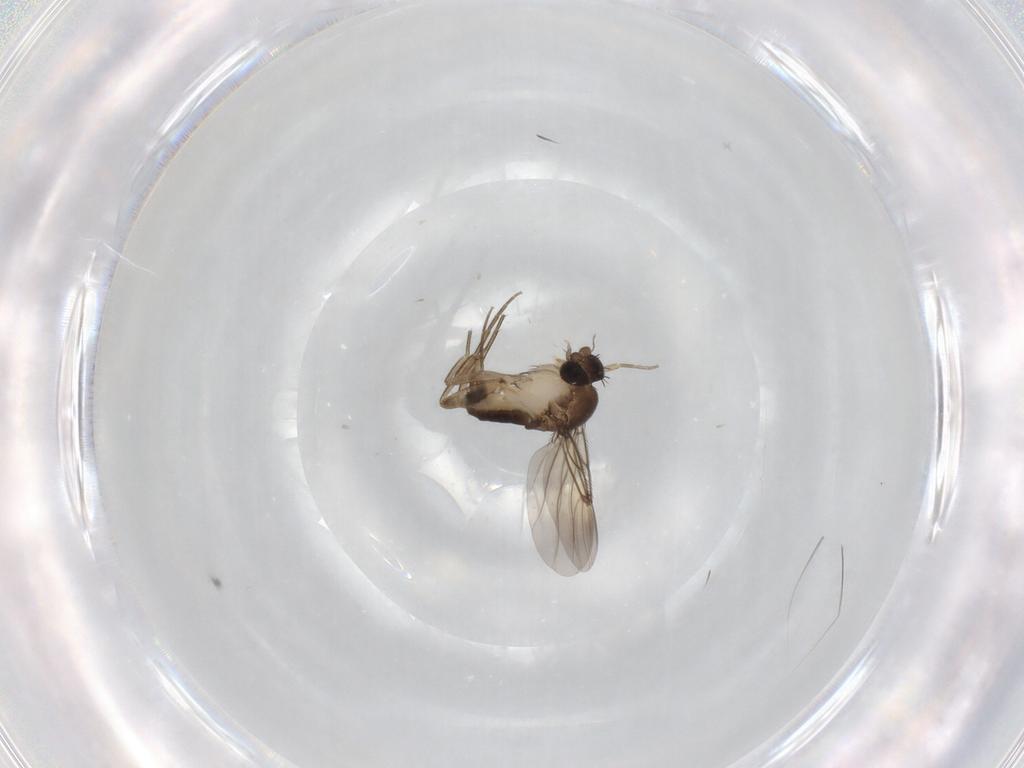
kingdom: Animalia
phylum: Arthropoda
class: Insecta
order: Diptera
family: Phoridae
